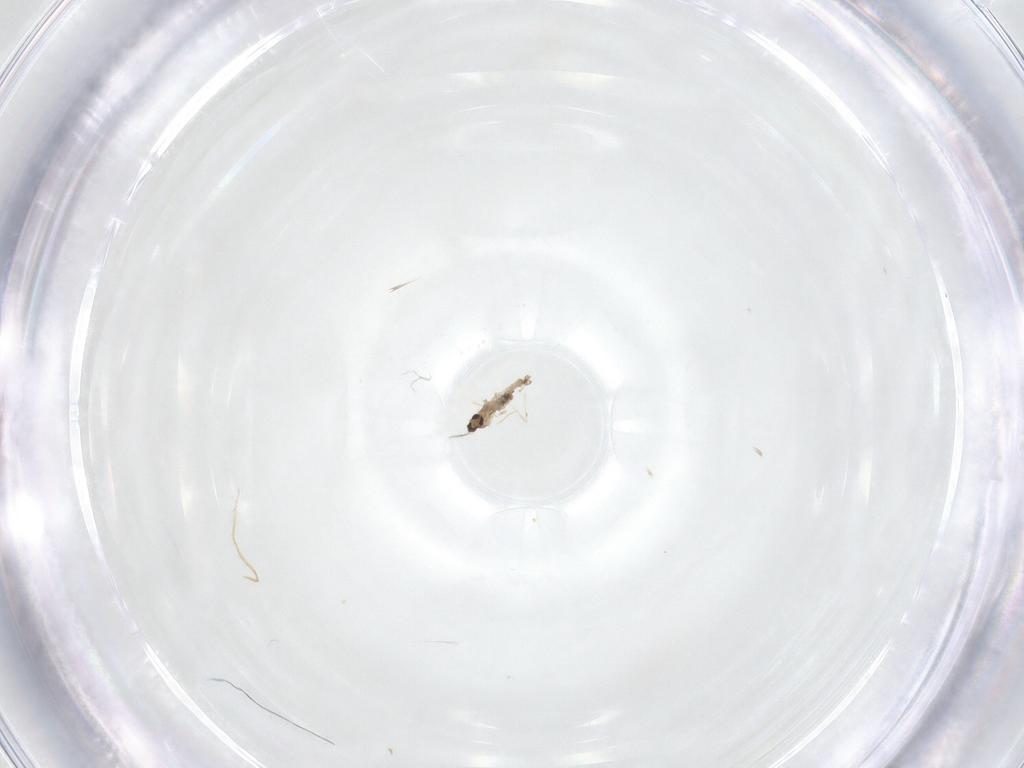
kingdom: Animalia
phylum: Arthropoda
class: Insecta
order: Diptera
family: Cecidomyiidae
